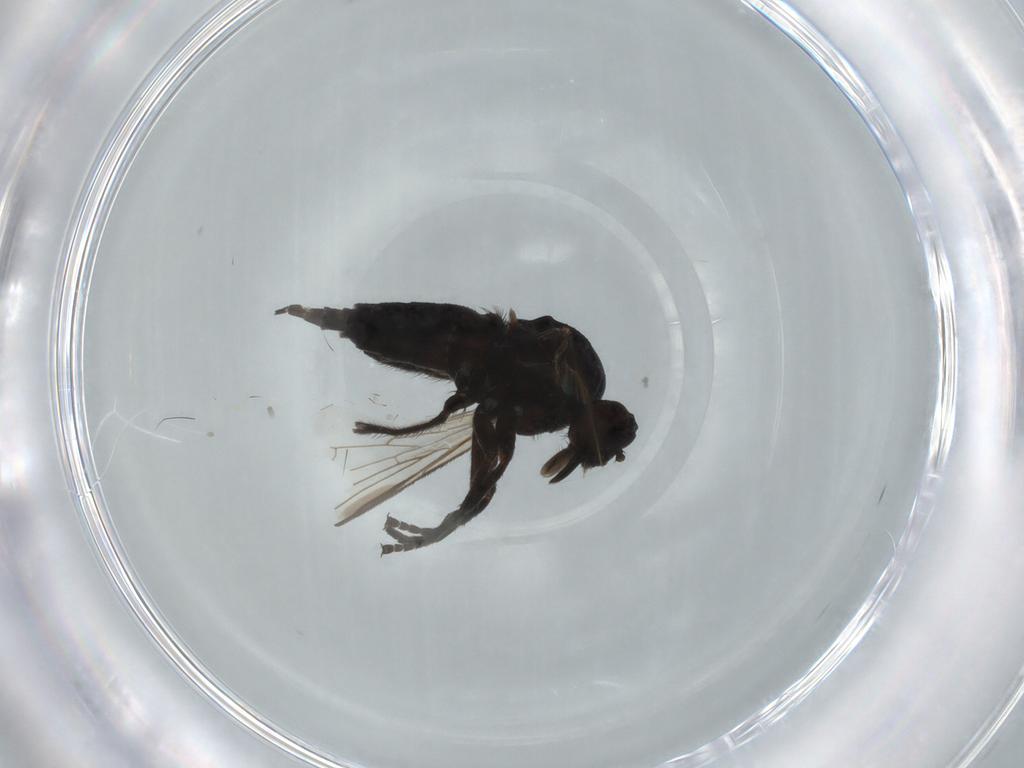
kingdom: Animalia
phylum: Arthropoda
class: Insecta
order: Diptera
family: Empididae
